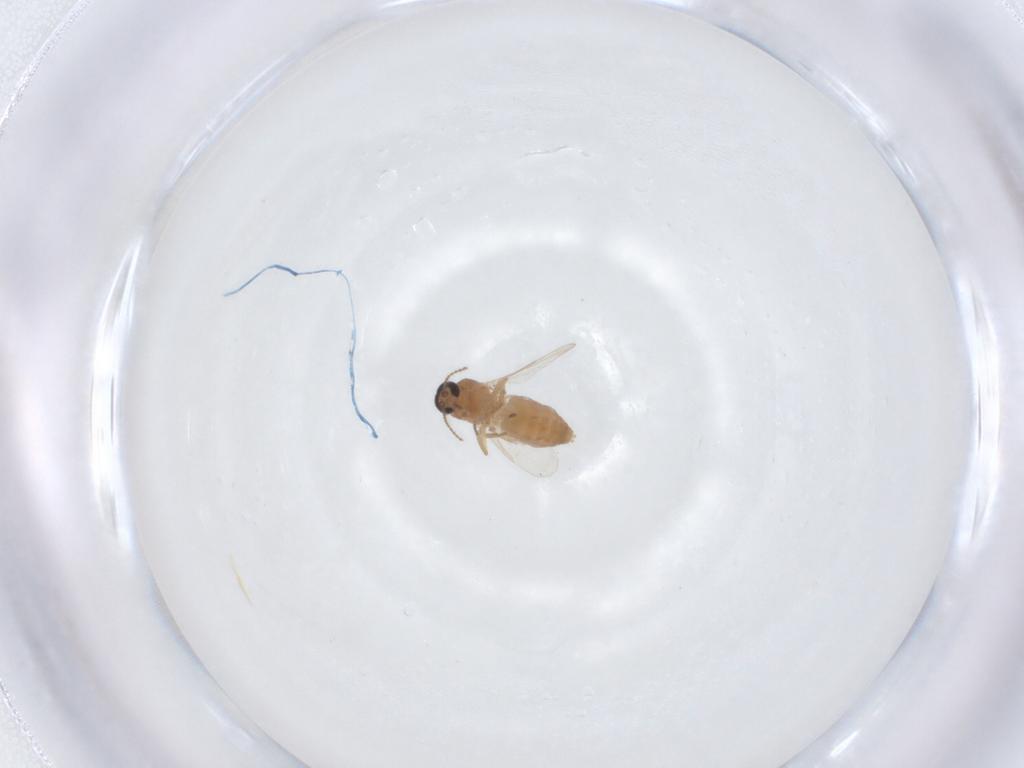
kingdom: Animalia
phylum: Arthropoda
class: Insecta
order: Diptera
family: Ceratopogonidae
